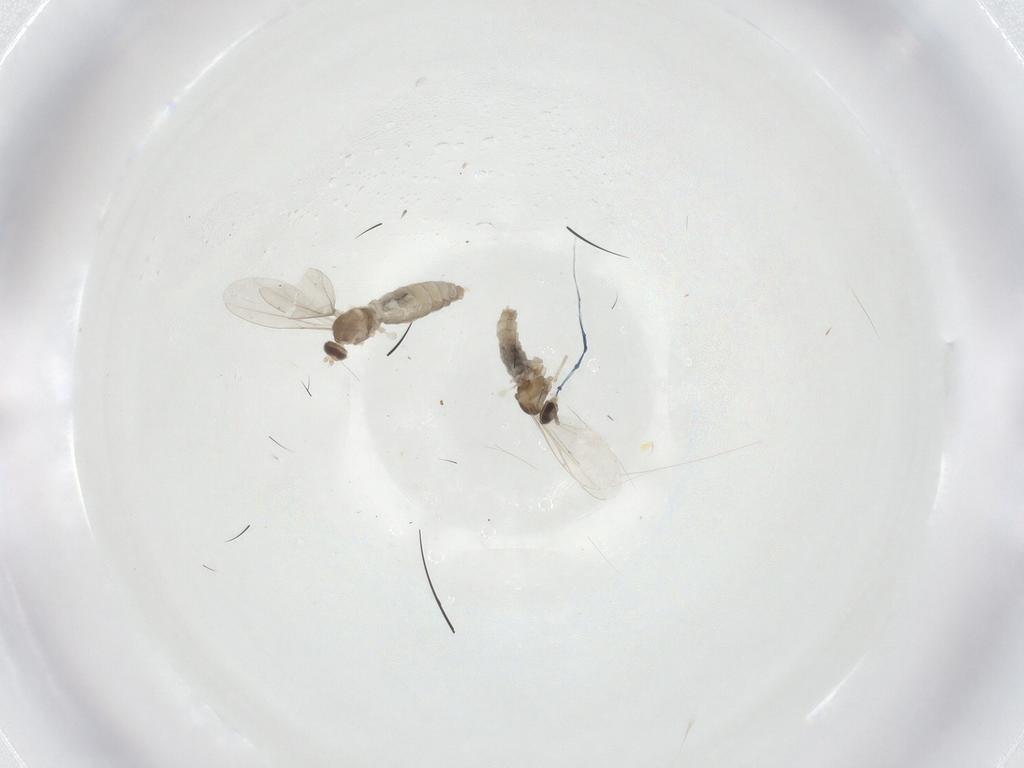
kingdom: Animalia
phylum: Arthropoda
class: Insecta
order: Diptera
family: Cecidomyiidae
